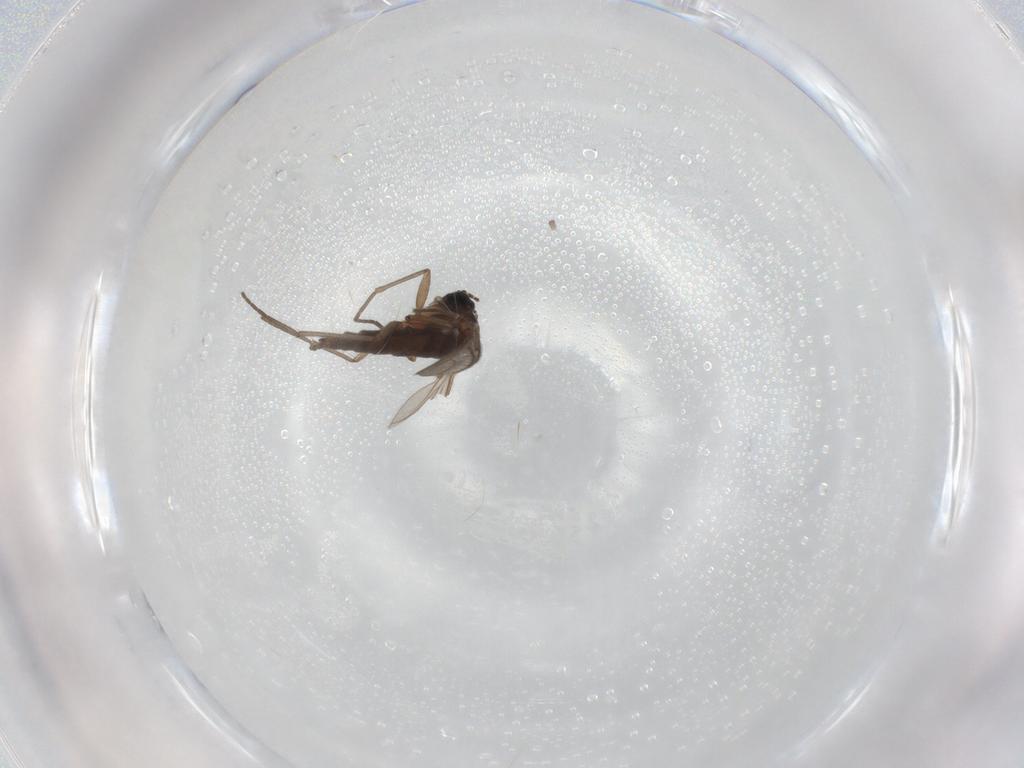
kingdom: Animalia
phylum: Arthropoda
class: Insecta
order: Diptera
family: Sciaridae
